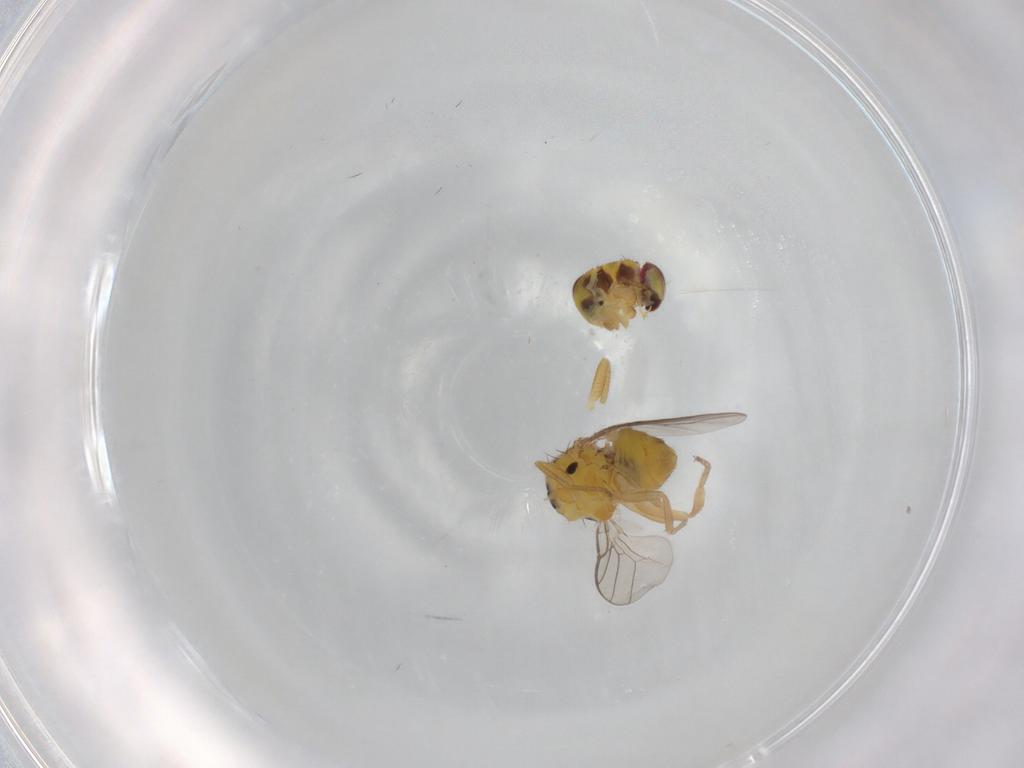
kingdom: Animalia
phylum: Arthropoda
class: Insecta
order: Diptera
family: Chloropidae
